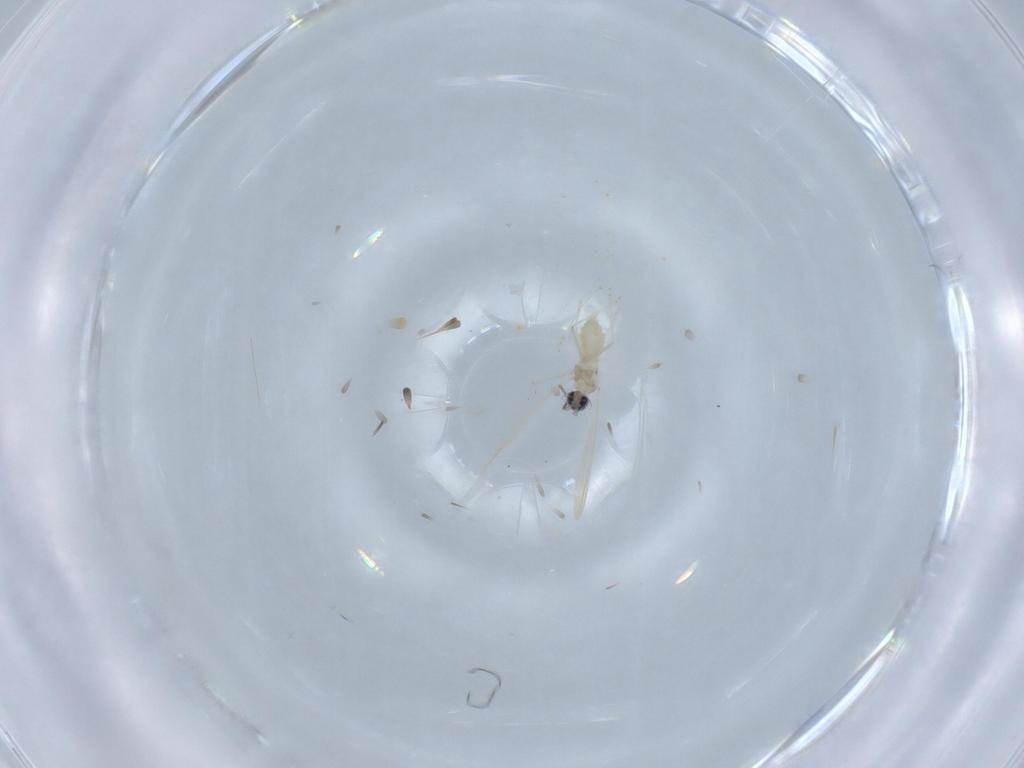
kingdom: Animalia
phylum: Arthropoda
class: Insecta
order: Diptera
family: Cecidomyiidae
